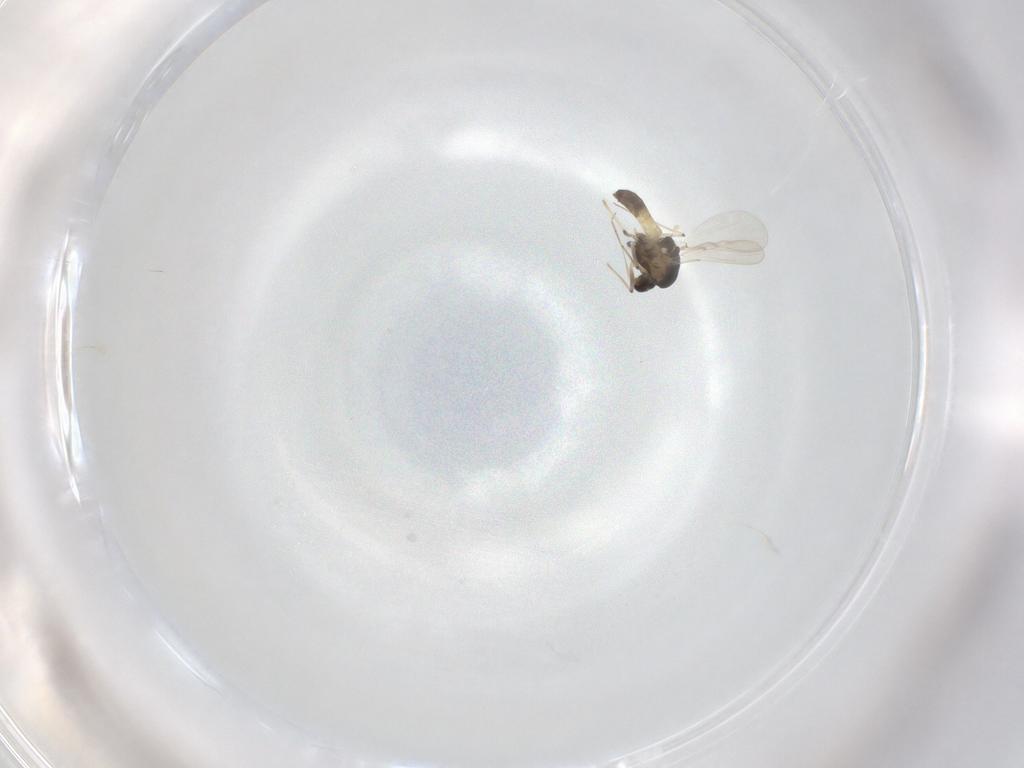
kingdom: Animalia
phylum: Arthropoda
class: Insecta
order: Diptera
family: Chironomidae
